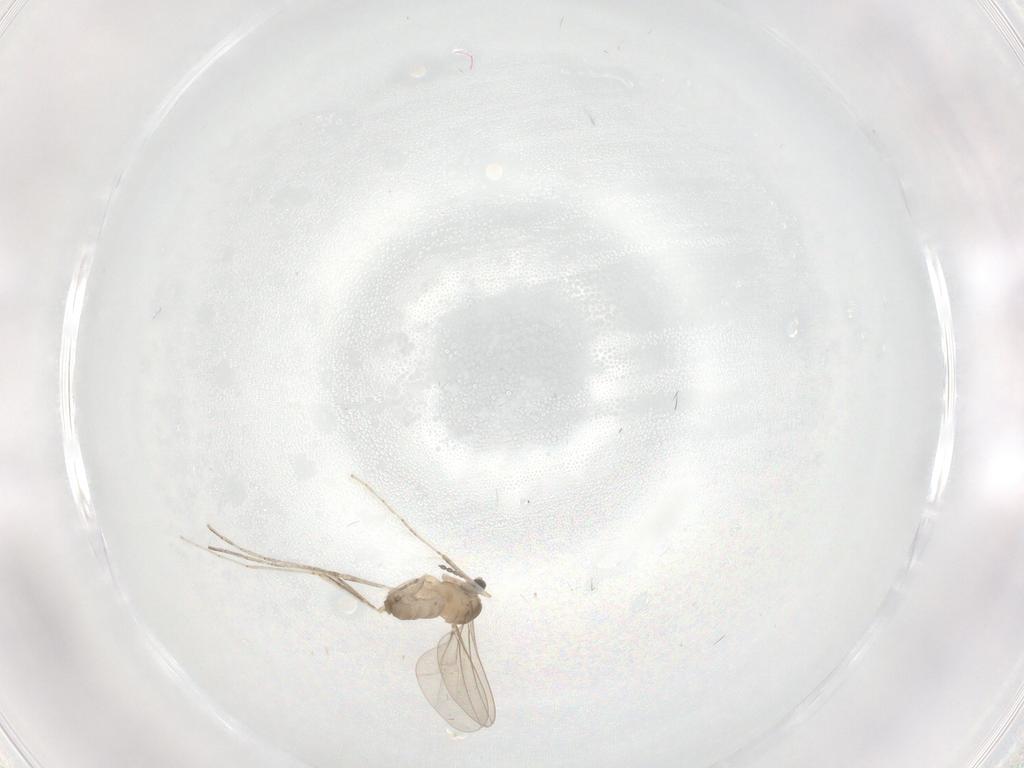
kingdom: Animalia
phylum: Arthropoda
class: Insecta
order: Diptera
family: Cecidomyiidae
